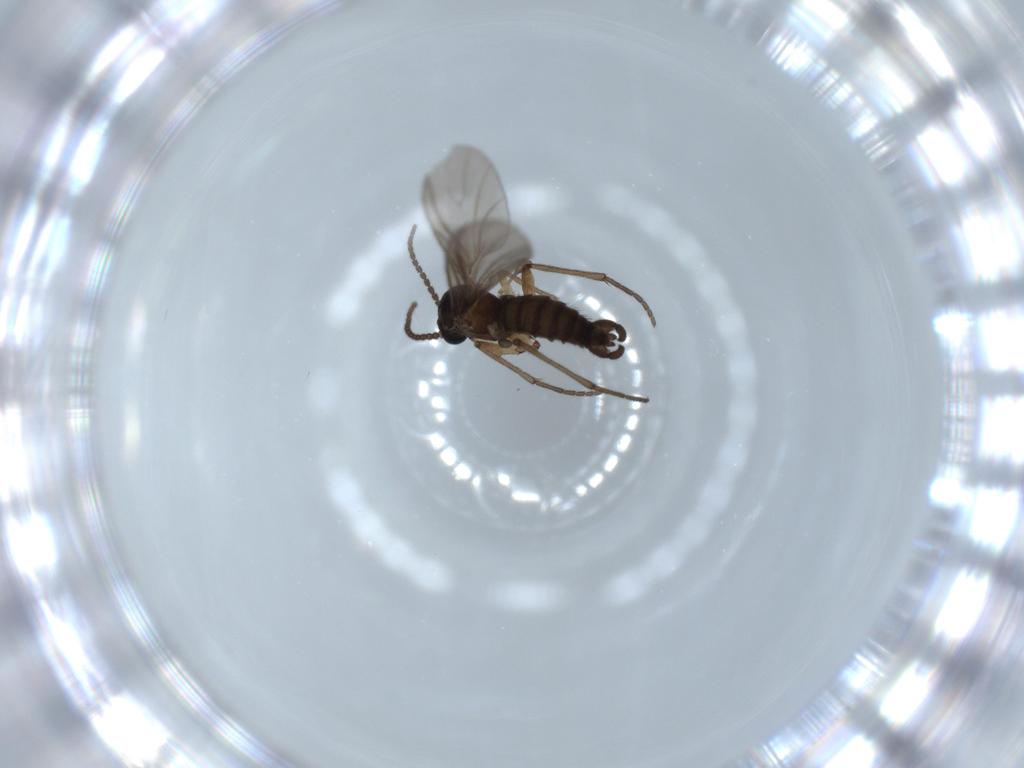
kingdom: Animalia
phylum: Arthropoda
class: Insecta
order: Diptera
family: Sciaridae
